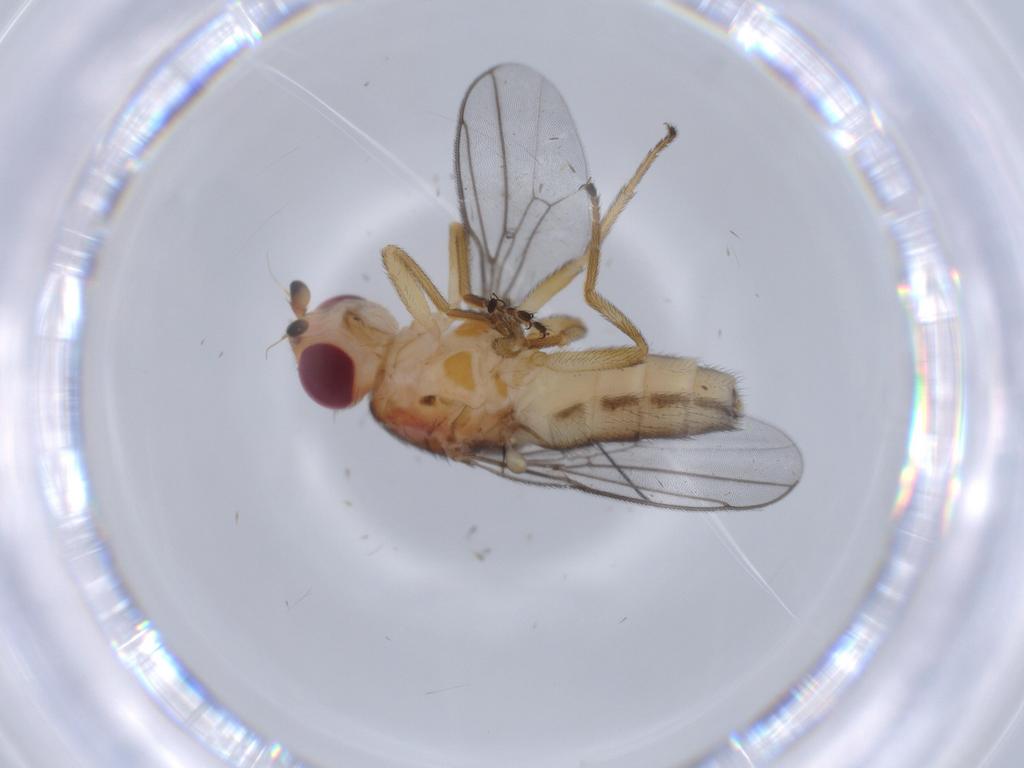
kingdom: Animalia
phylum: Arthropoda
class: Insecta
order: Diptera
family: Chloropidae
